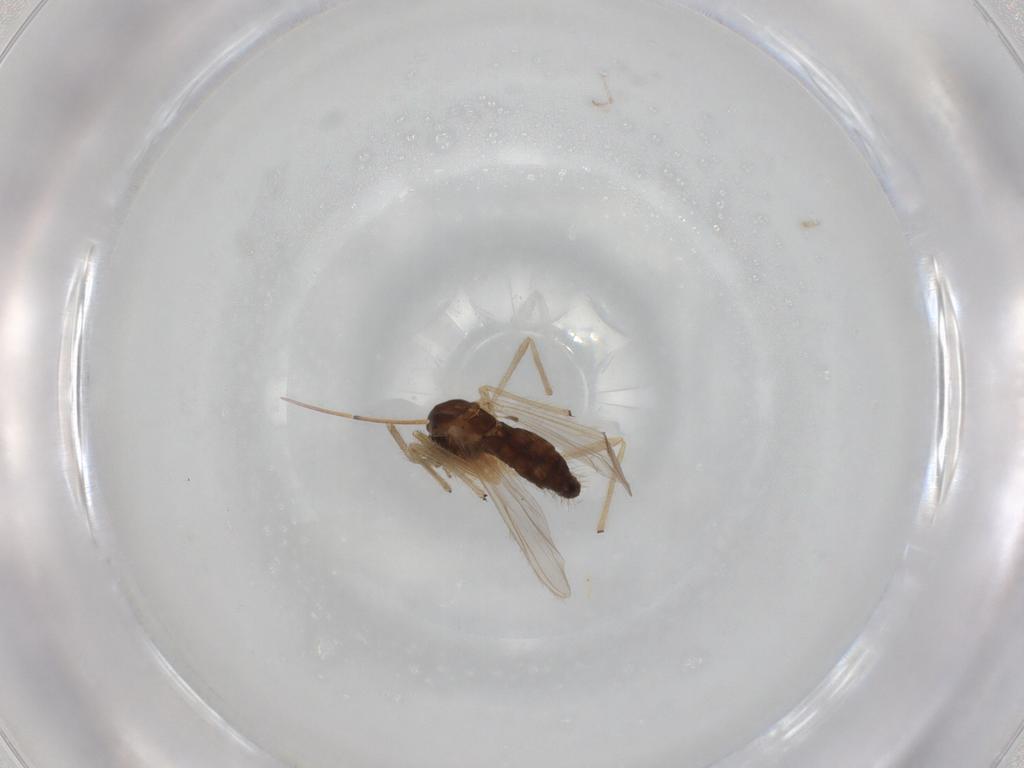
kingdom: Animalia
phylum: Arthropoda
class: Insecta
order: Diptera
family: Chironomidae
